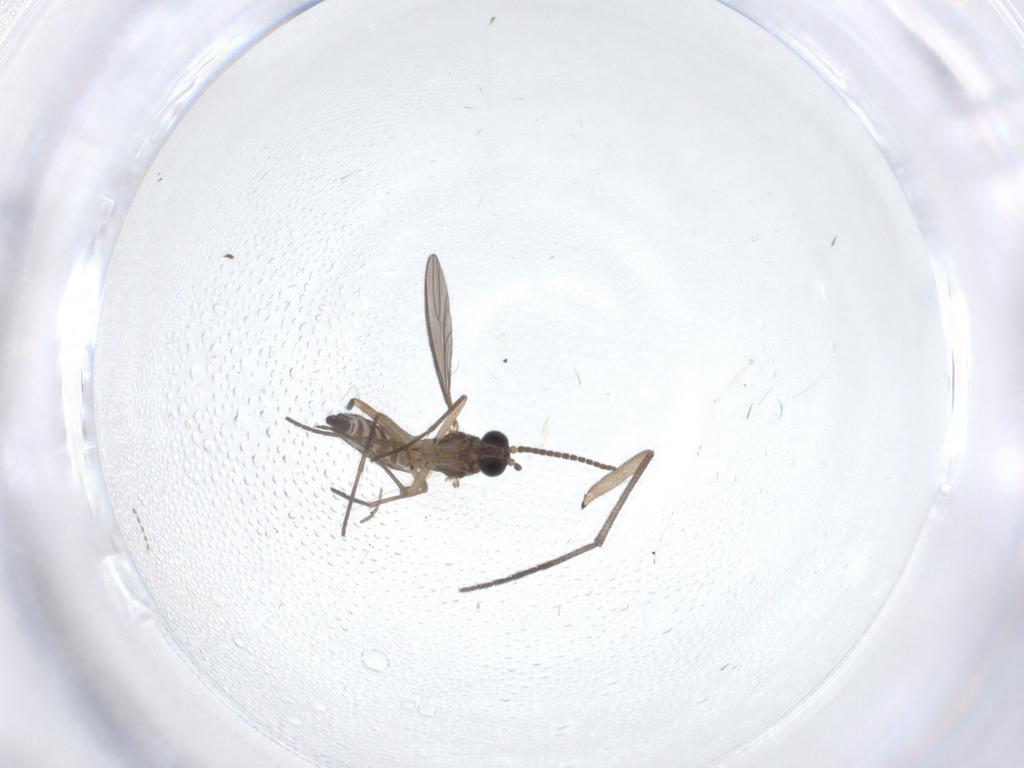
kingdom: Animalia
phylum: Arthropoda
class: Insecta
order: Diptera
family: Sciaridae
